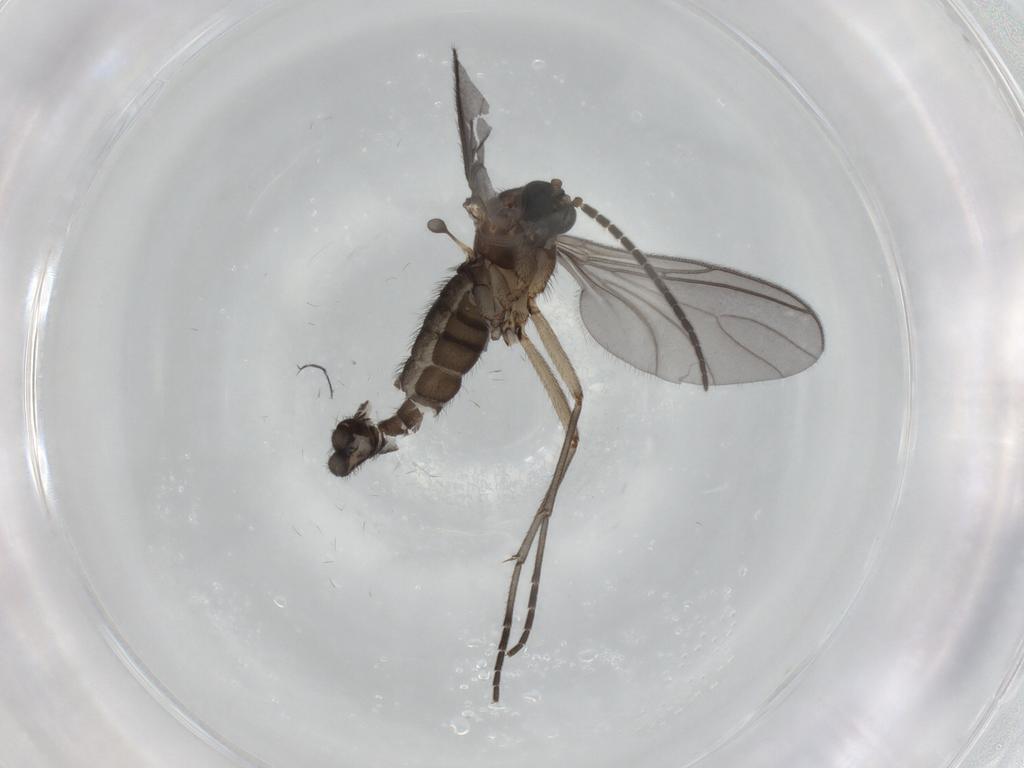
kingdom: Animalia
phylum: Arthropoda
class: Insecta
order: Diptera
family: Sciaridae
